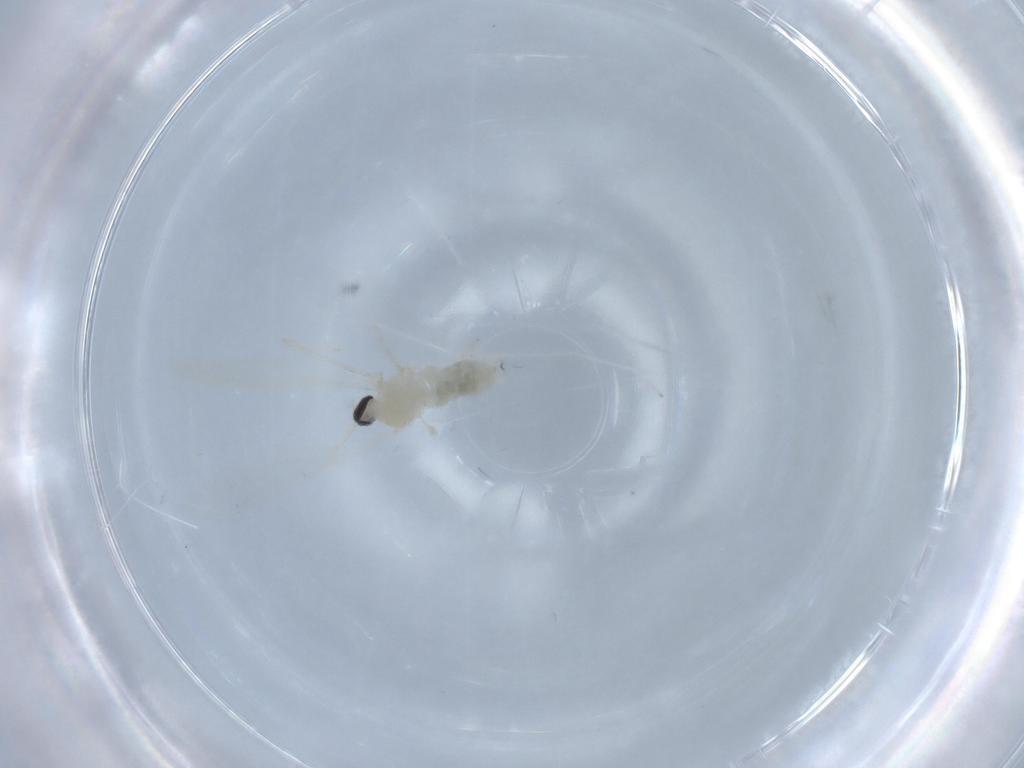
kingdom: Animalia
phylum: Arthropoda
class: Insecta
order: Diptera
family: Cecidomyiidae
